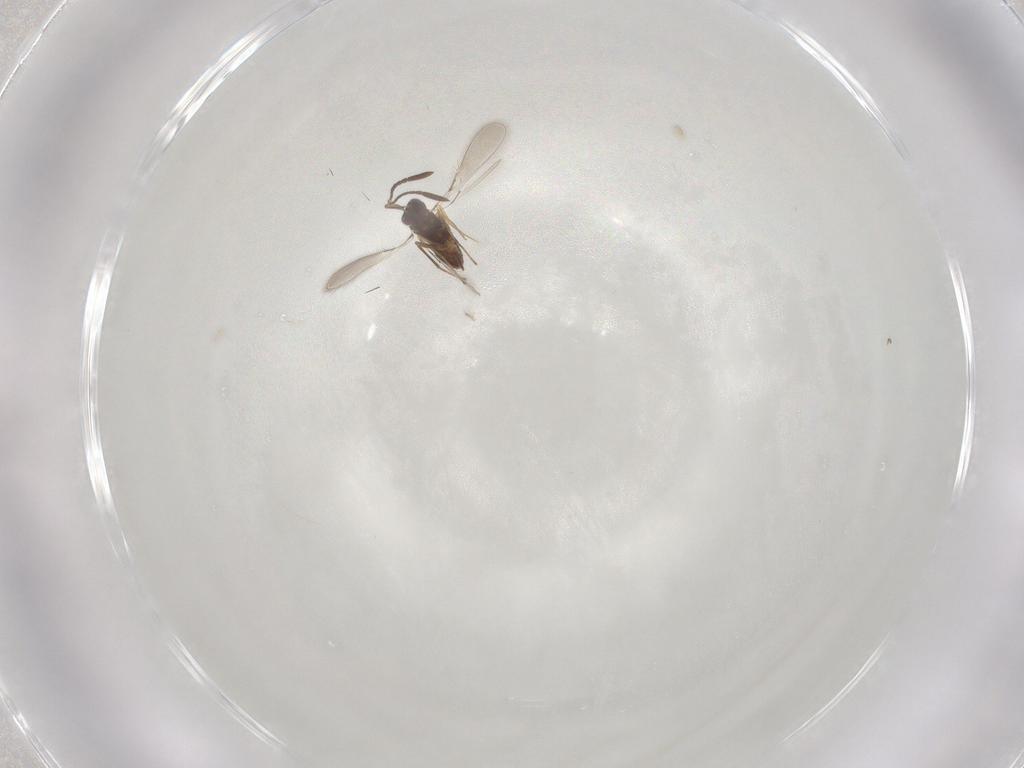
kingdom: Animalia
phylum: Arthropoda
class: Insecta
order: Hymenoptera
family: Mymaridae
